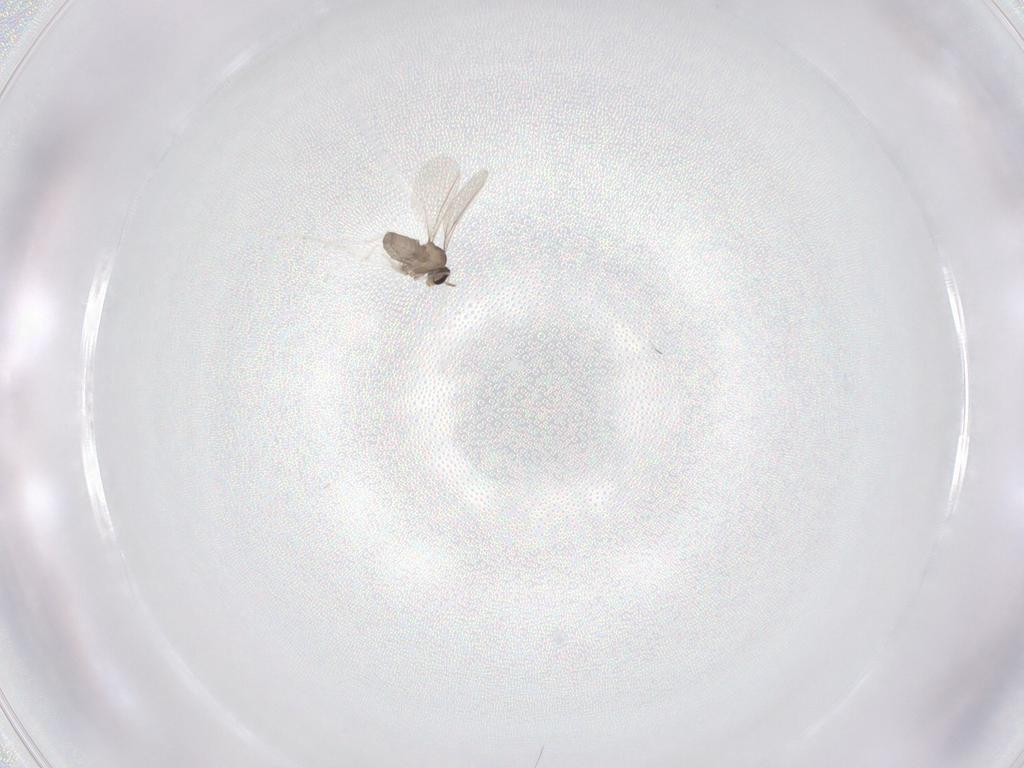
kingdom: Animalia
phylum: Arthropoda
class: Insecta
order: Diptera
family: Cecidomyiidae
